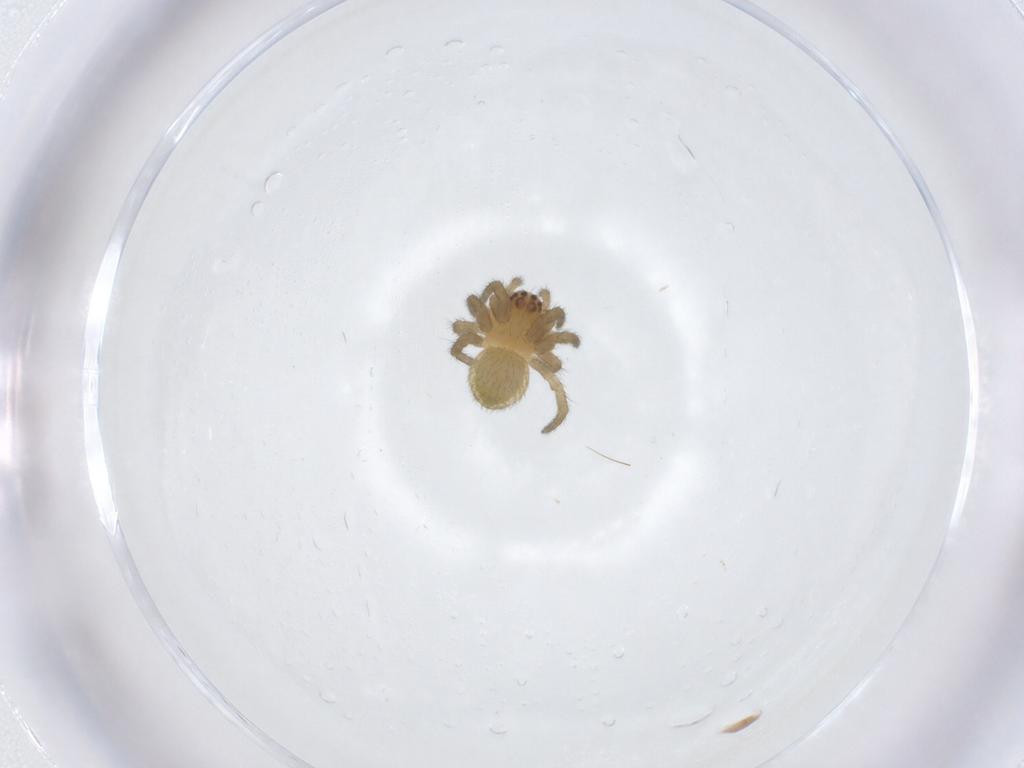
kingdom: Animalia
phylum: Arthropoda
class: Arachnida
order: Araneae
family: Araneidae
